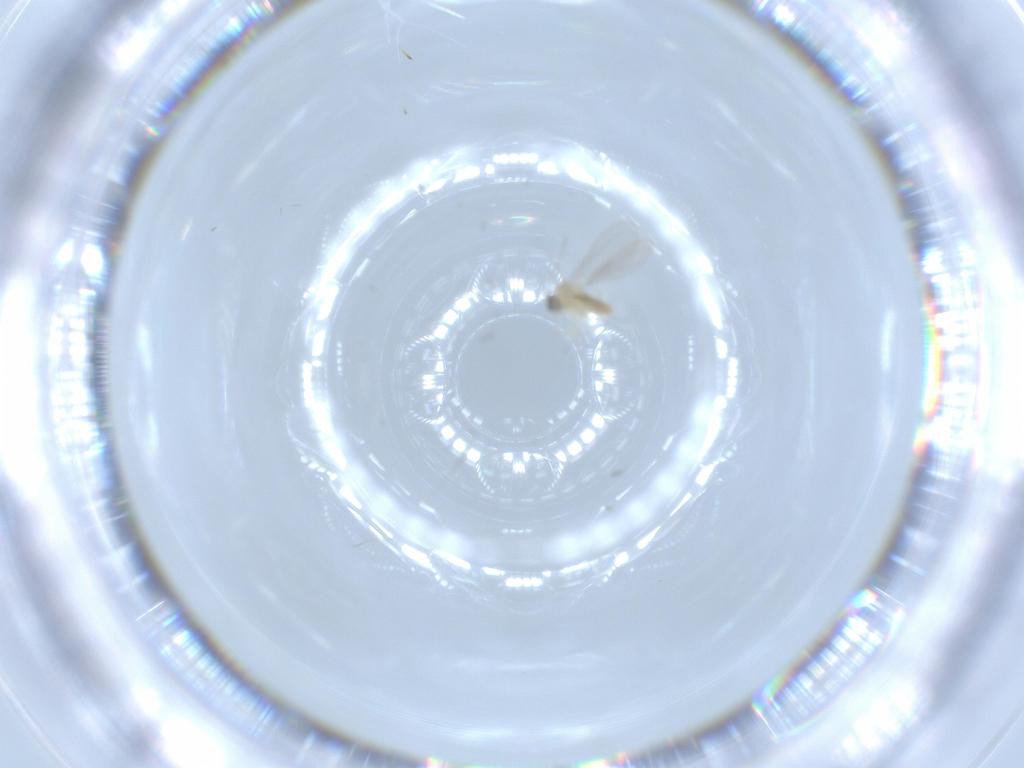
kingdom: Animalia
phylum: Arthropoda
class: Insecta
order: Diptera
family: Cecidomyiidae
